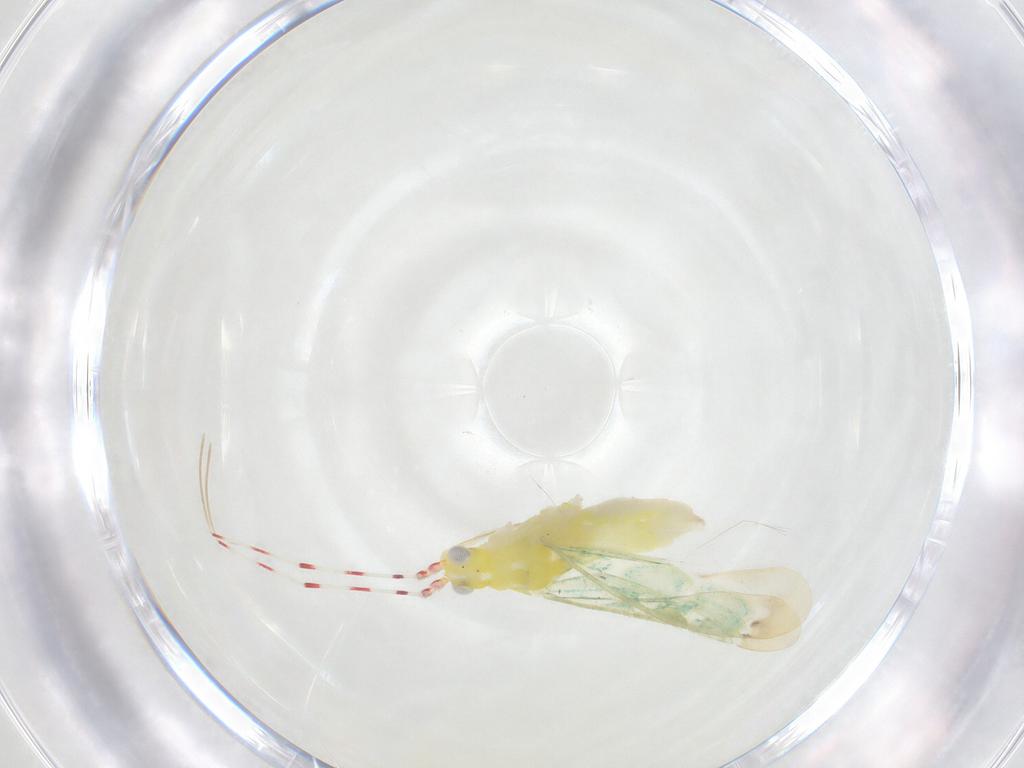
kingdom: Animalia
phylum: Arthropoda
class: Insecta
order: Hemiptera
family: Miridae
